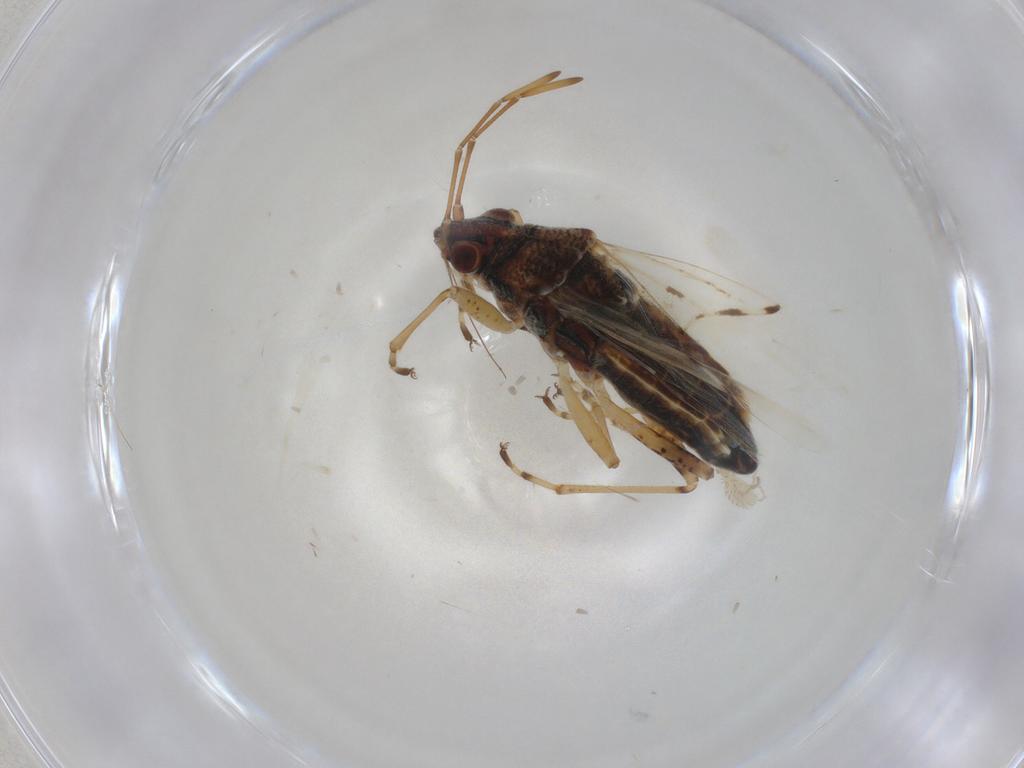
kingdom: Animalia
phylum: Arthropoda
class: Insecta
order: Hemiptera
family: Lygaeidae
